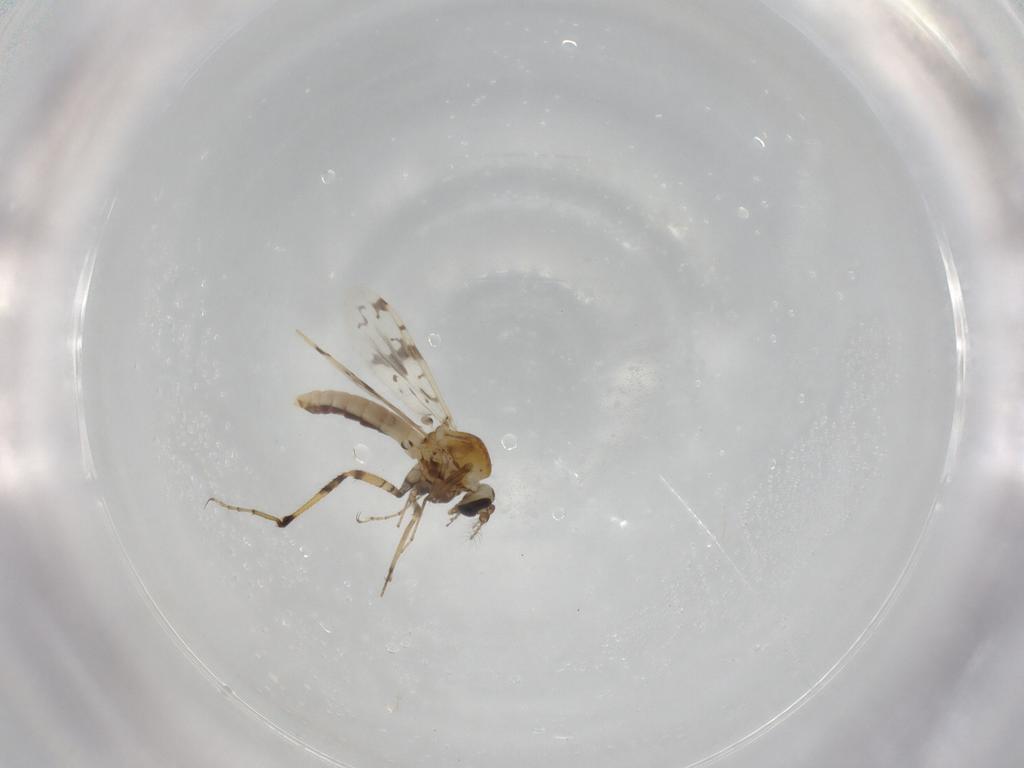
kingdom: Animalia
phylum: Arthropoda
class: Insecta
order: Diptera
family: Ceratopogonidae
